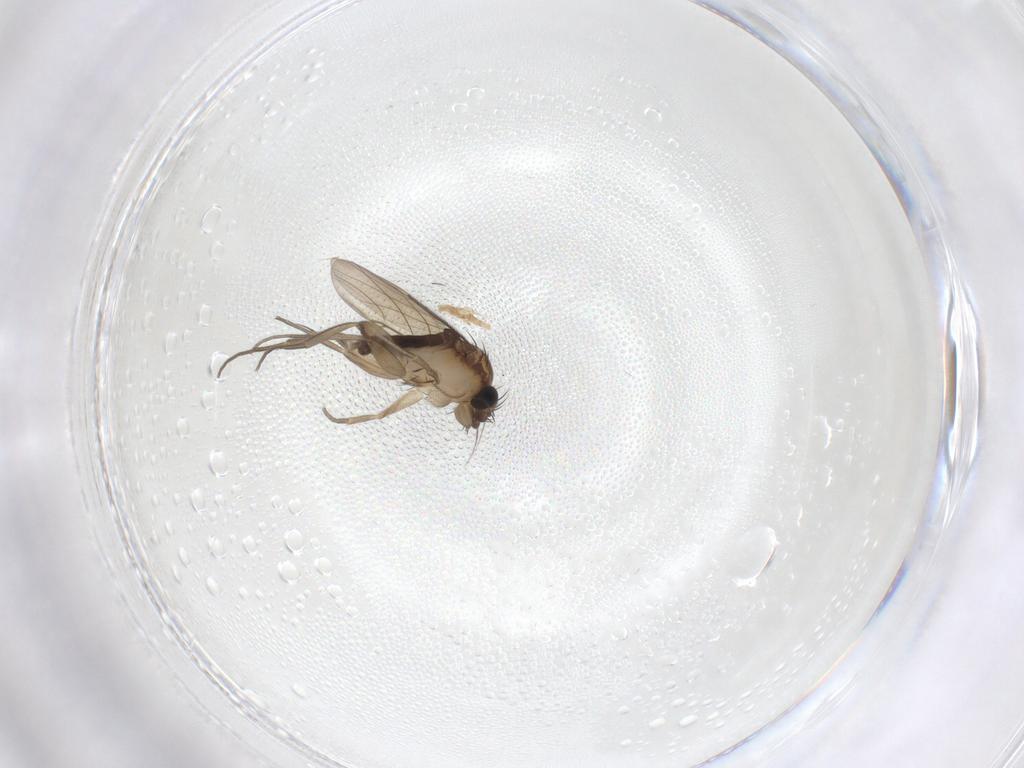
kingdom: Animalia
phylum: Arthropoda
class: Insecta
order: Diptera
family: Phoridae
